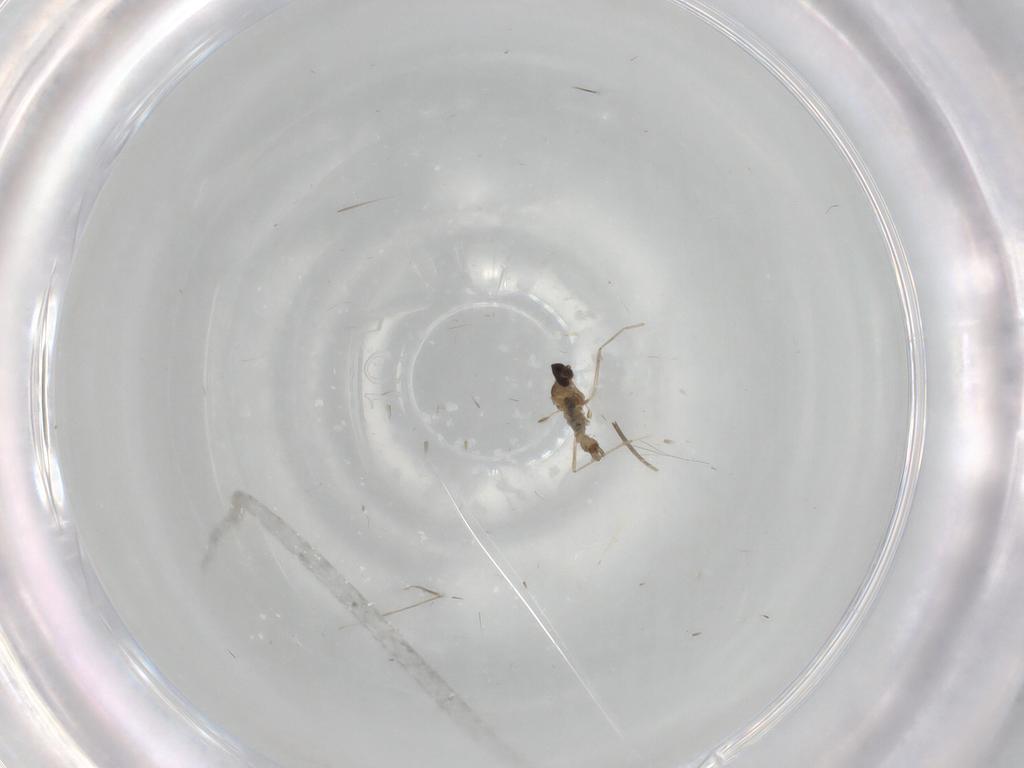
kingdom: Animalia
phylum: Arthropoda
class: Insecta
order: Diptera
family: Cecidomyiidae
